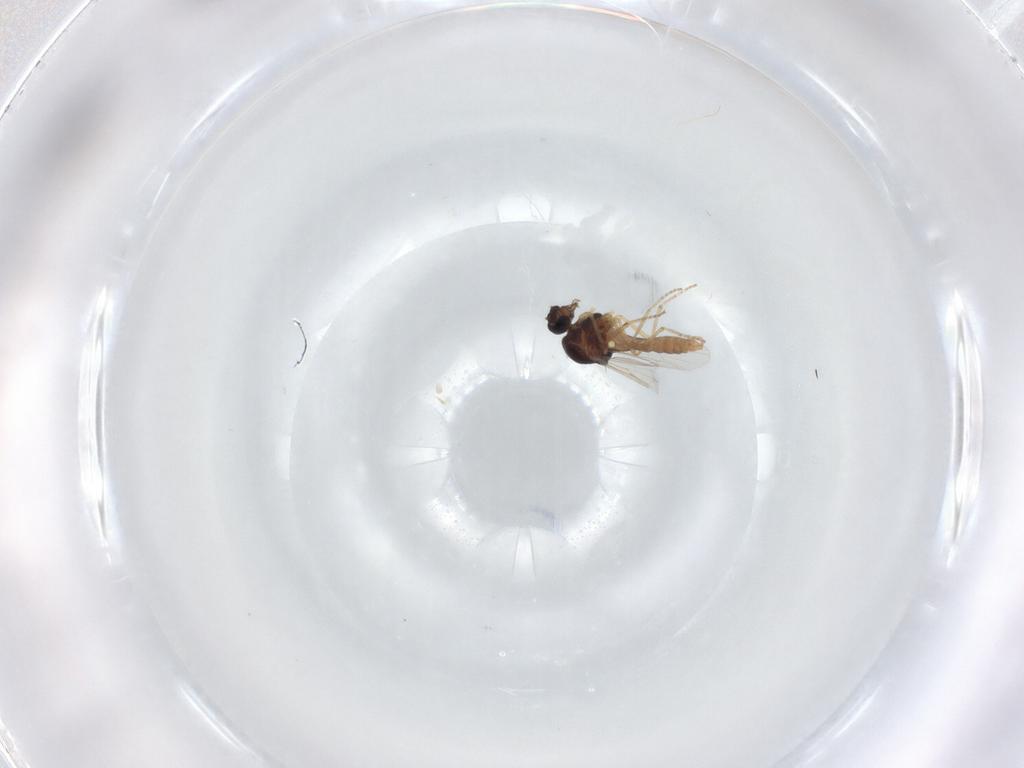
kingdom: Animalia
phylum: Arthropoda
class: Insecta
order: Diptera
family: Ceratopogonidae
